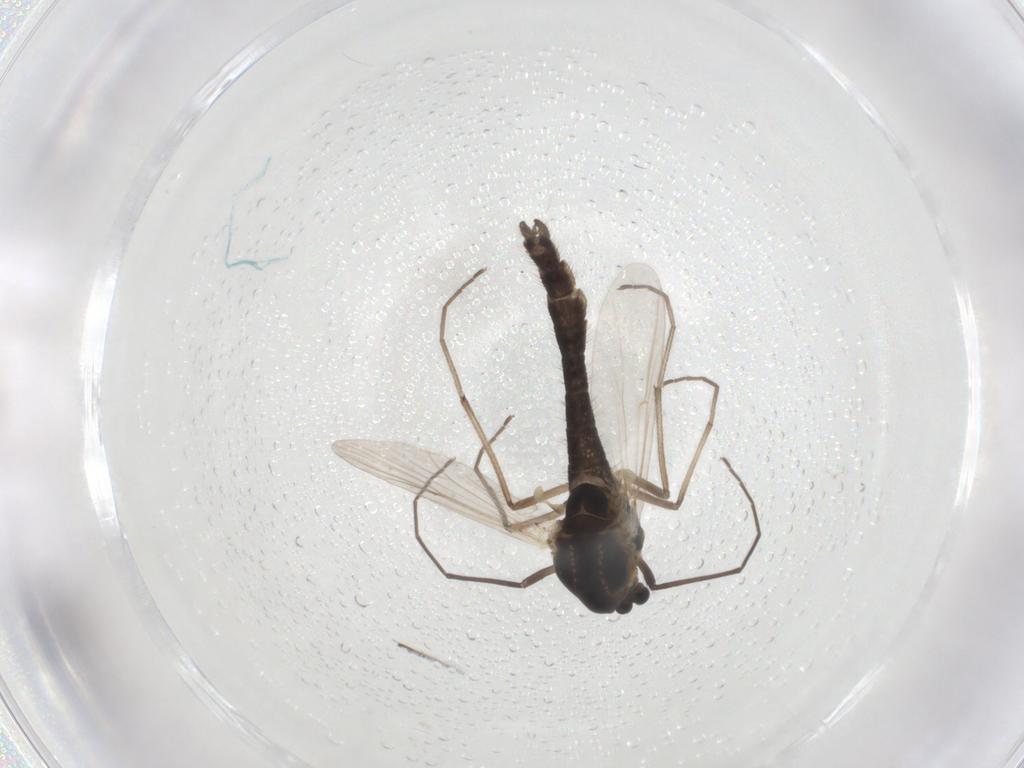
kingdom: Animalia
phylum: Arthropoda
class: Insecta
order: Diptera
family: Chironomidae
